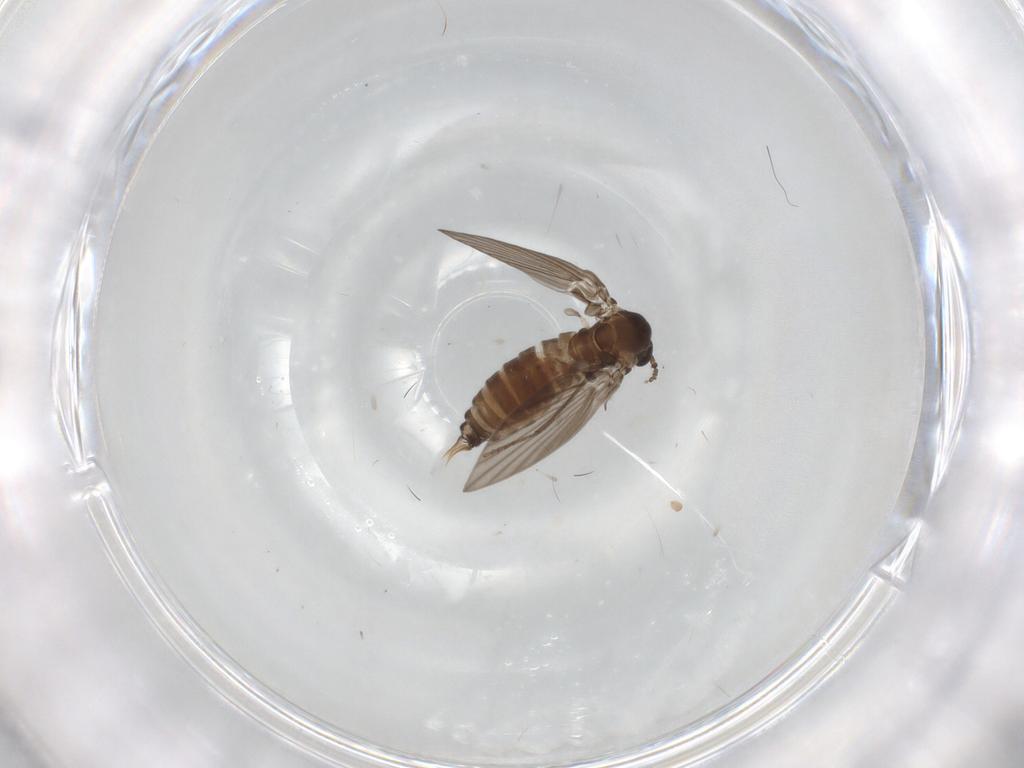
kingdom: Animalia
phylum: Arthropoda
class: Insecta
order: Diptera
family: Psychodidae
